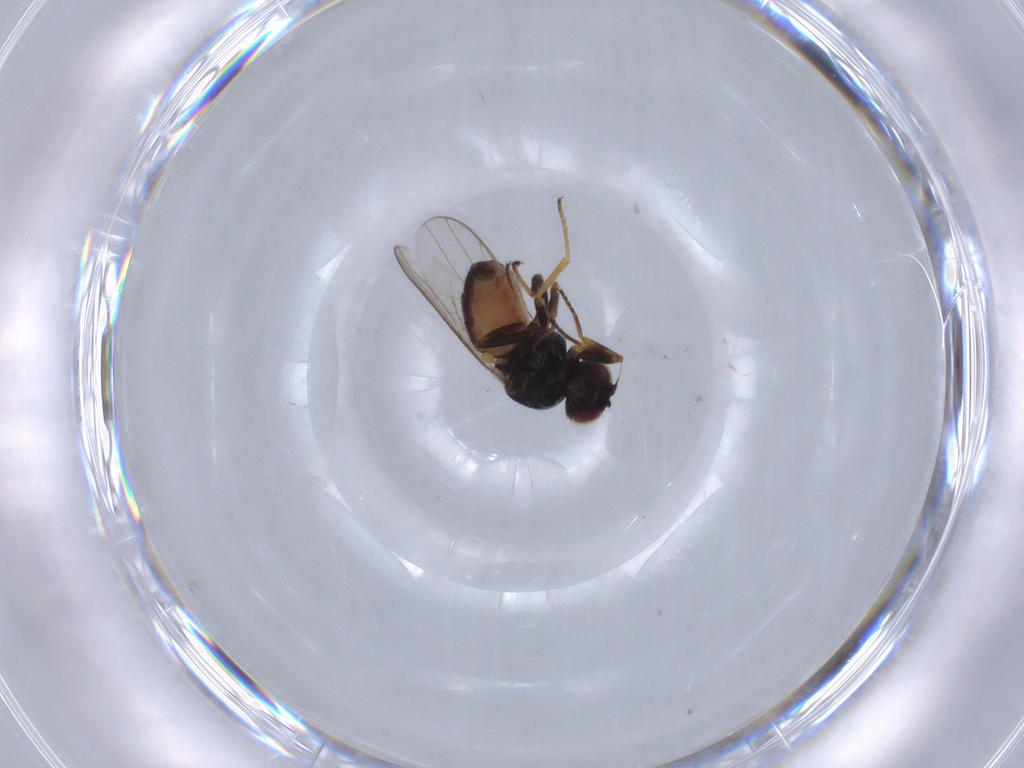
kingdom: Animalia
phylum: Arthropoda
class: Insecta
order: Diptera
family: Chloropidae
